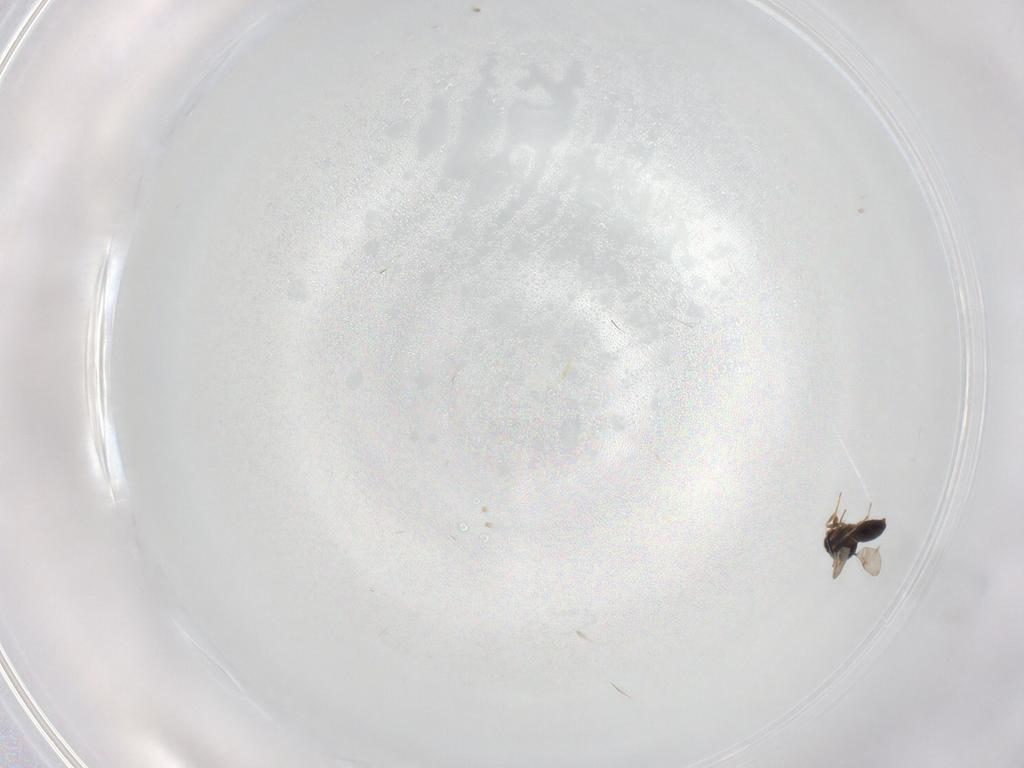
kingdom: Animalia
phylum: Arthropoda
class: Insecta
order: Hymenoptera
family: Scelionidae
